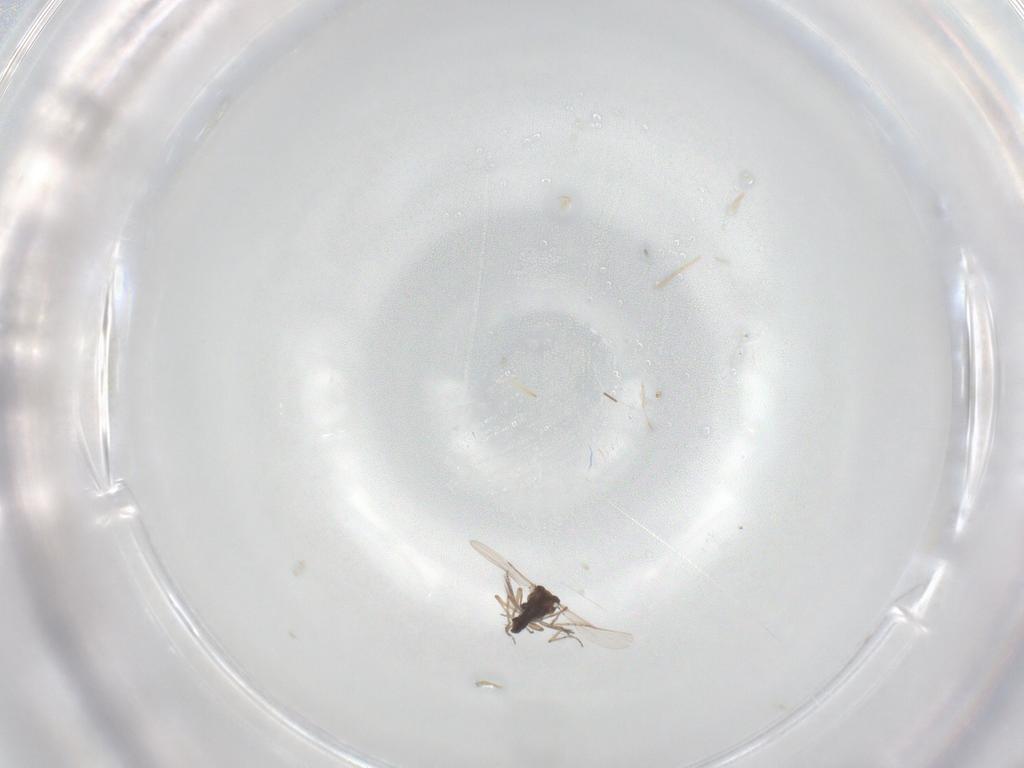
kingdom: Animalia
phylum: Arthropoda
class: Insecta
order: Diptera
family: Ceratopogonidae
